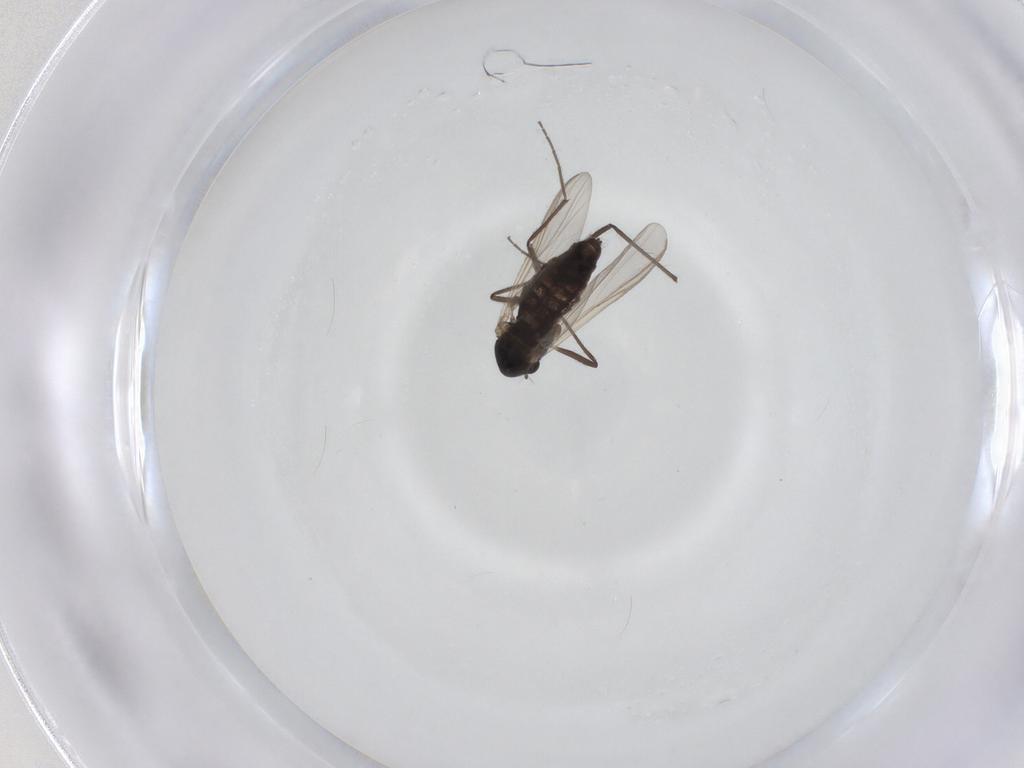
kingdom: Animalia
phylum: Arthropoda
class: Insecta
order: Diptera
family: Chironomidae
